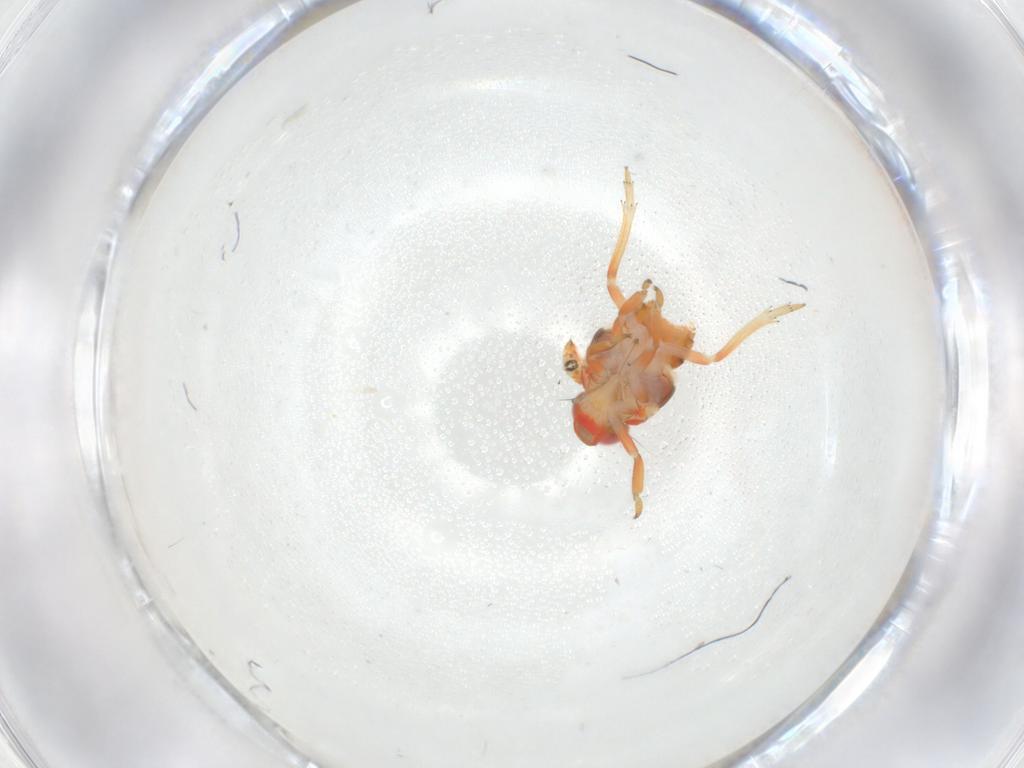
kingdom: Animalia
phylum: Arthropoda
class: Insecta
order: Hemiptera
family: Issidae
